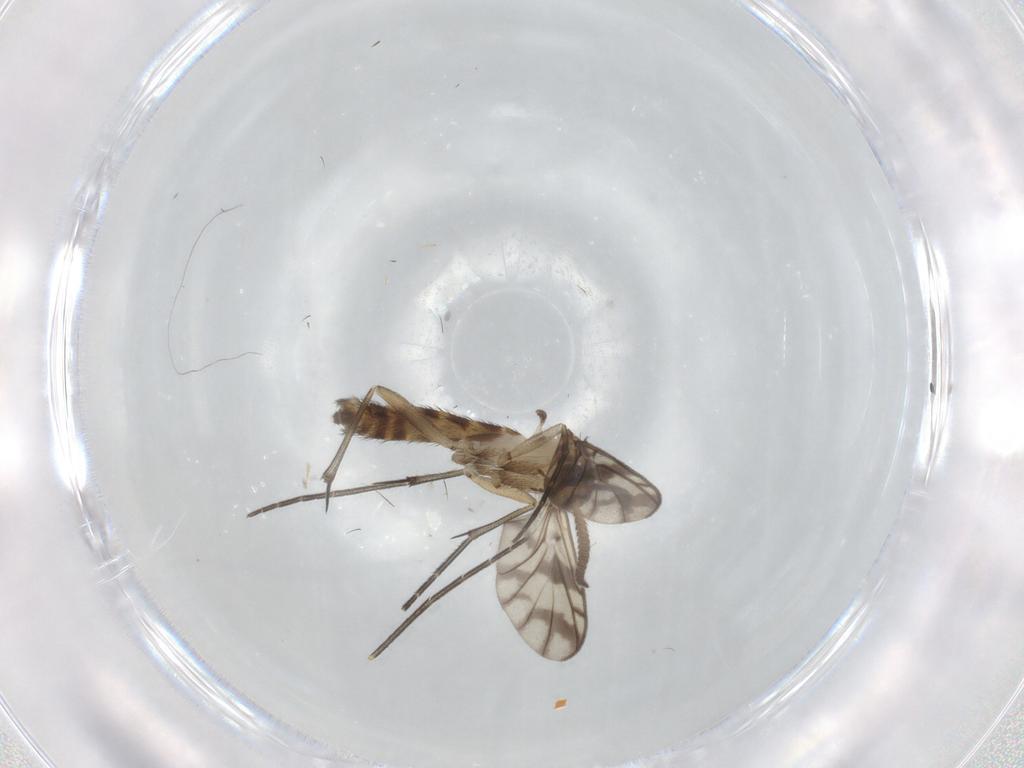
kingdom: Animalia
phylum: Arthropoda
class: Insecta
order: Diptera
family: Keroplatidae
